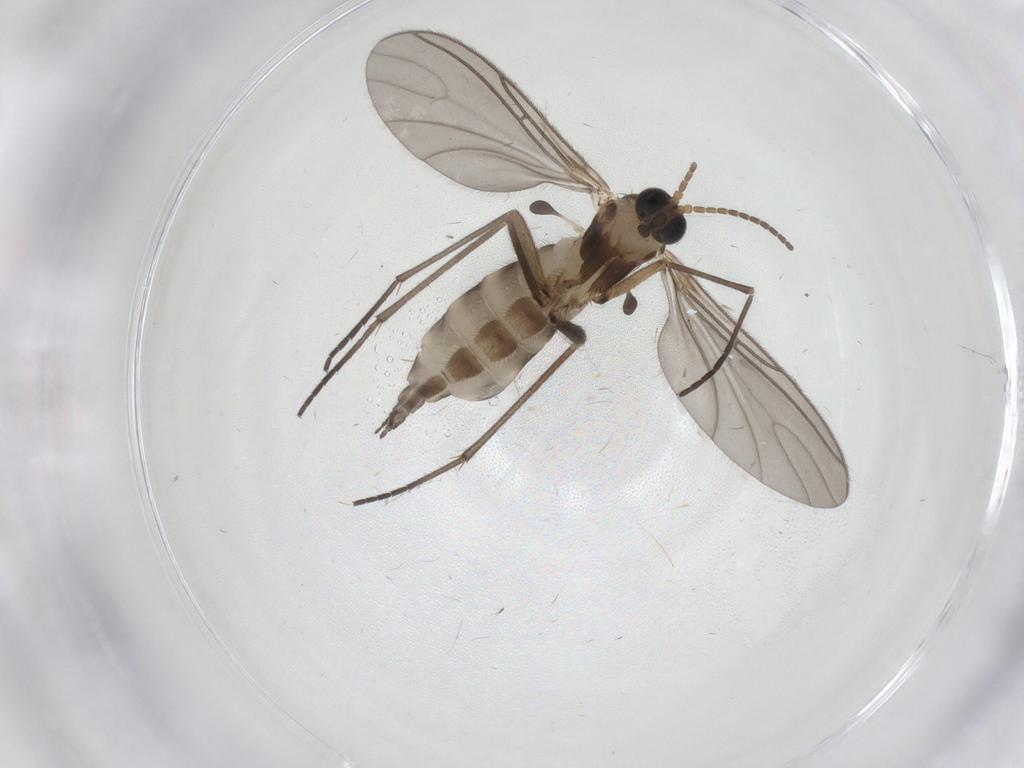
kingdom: Animalia
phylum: Arthropoda
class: Insecta
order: Diptera
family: Sciaridae
